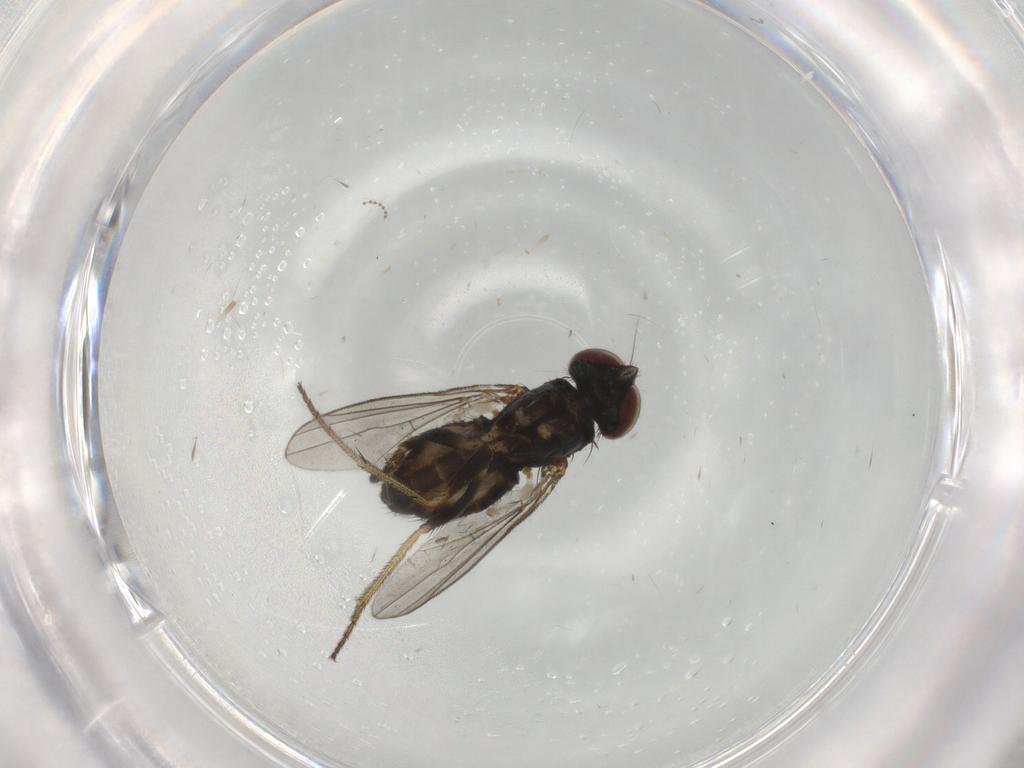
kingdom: Animalia
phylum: Arthropoda
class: Insecta
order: Diptera
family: Dolichopodidae
